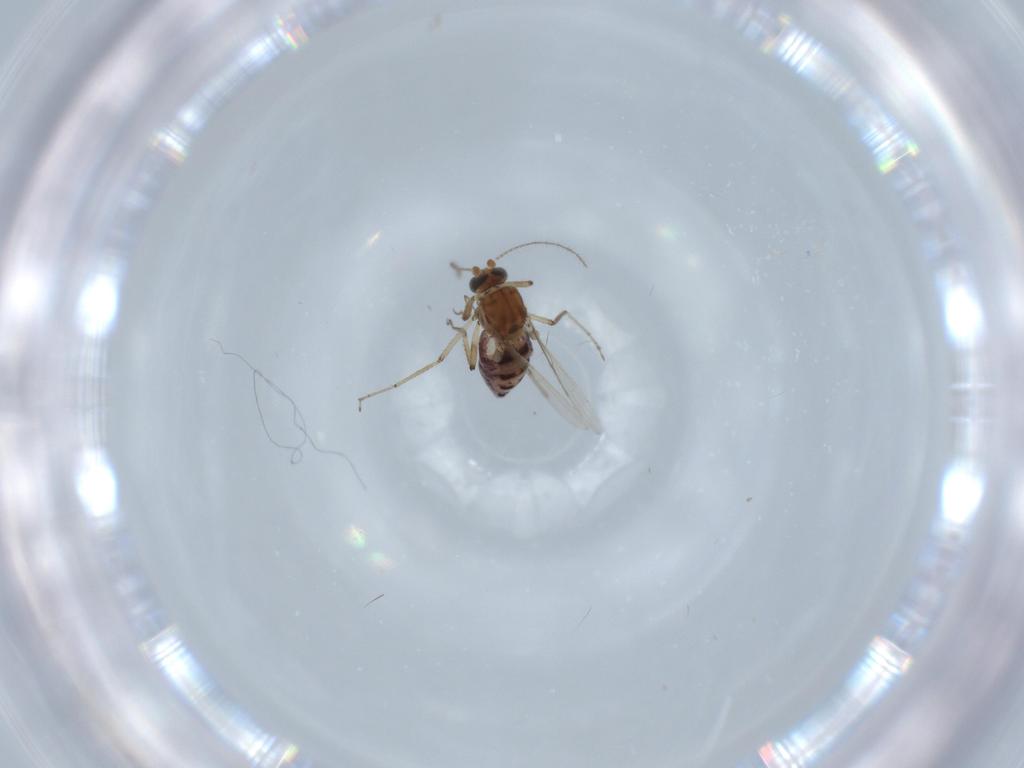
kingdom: Animalia
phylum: Arthropoda
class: Insecta
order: Diptera
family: Ceratopogonidae
